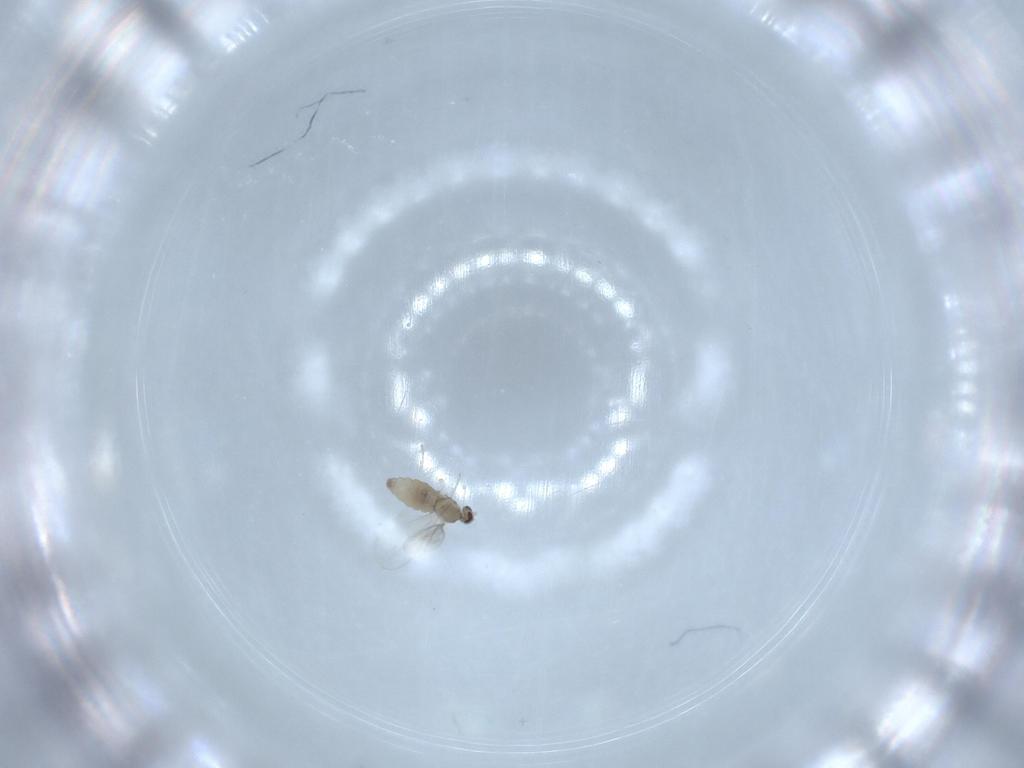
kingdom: Animalia
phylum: Arthropoda
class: Insecta
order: Diptera
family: Cecidomyiidae
